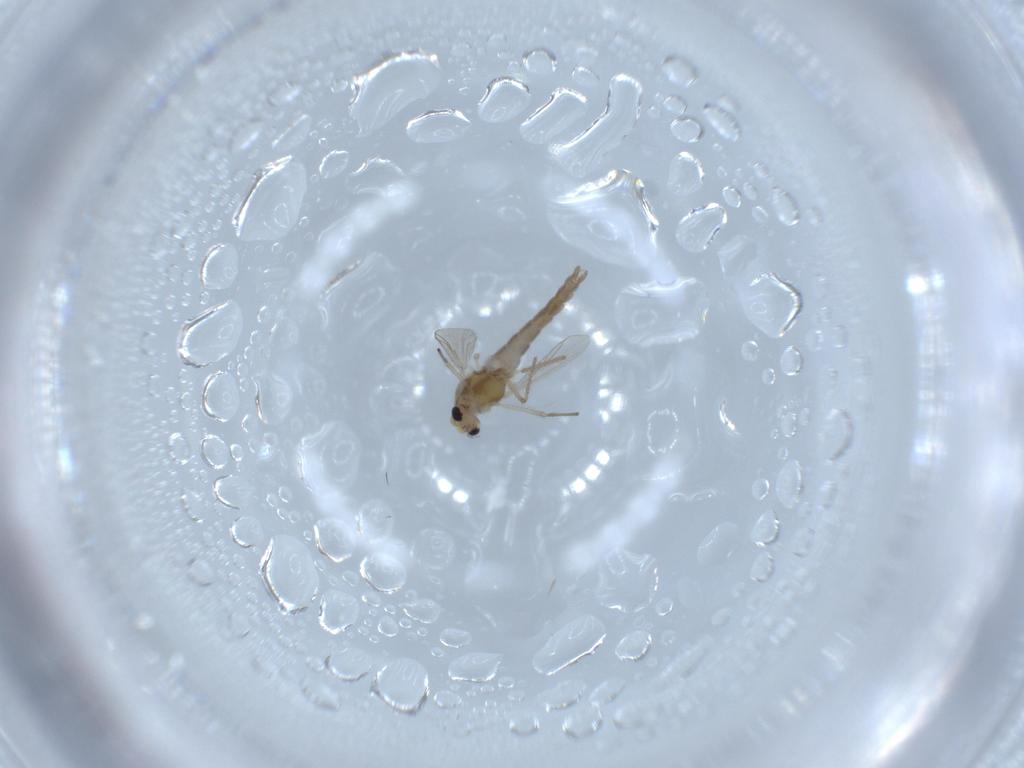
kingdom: Animalia
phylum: Arthropoda
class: Insecta
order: Diptera
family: Chironomidae
